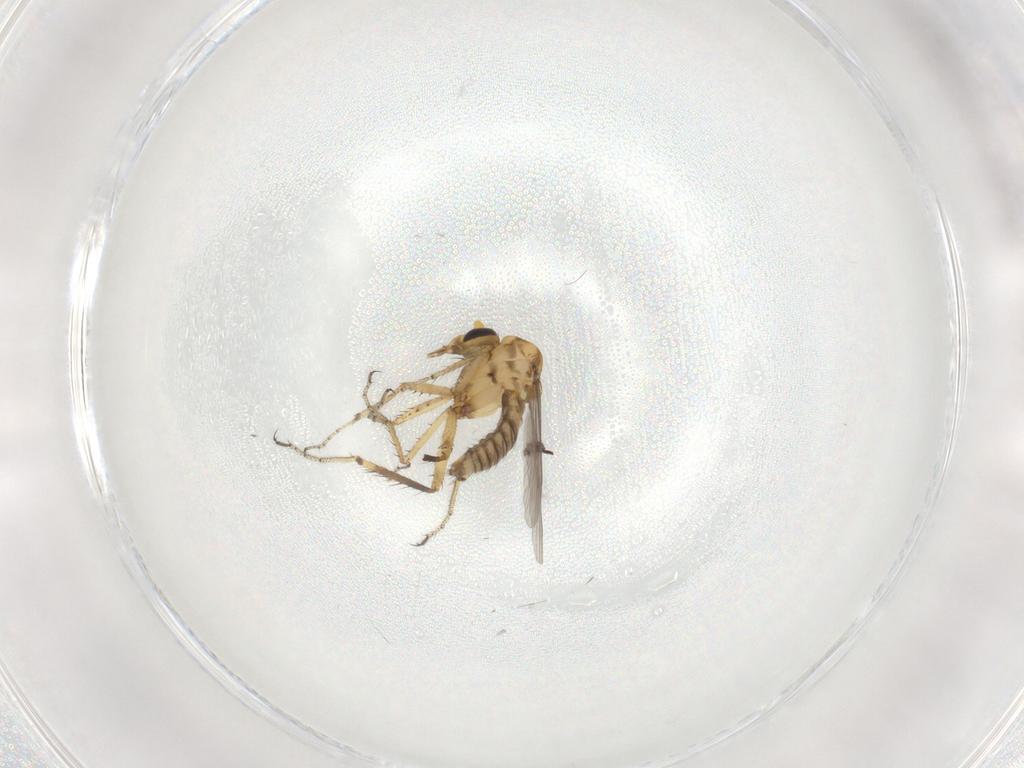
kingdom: Animalia
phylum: Arthropoda
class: Insecta
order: Diptera
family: Ceratopogonidae
